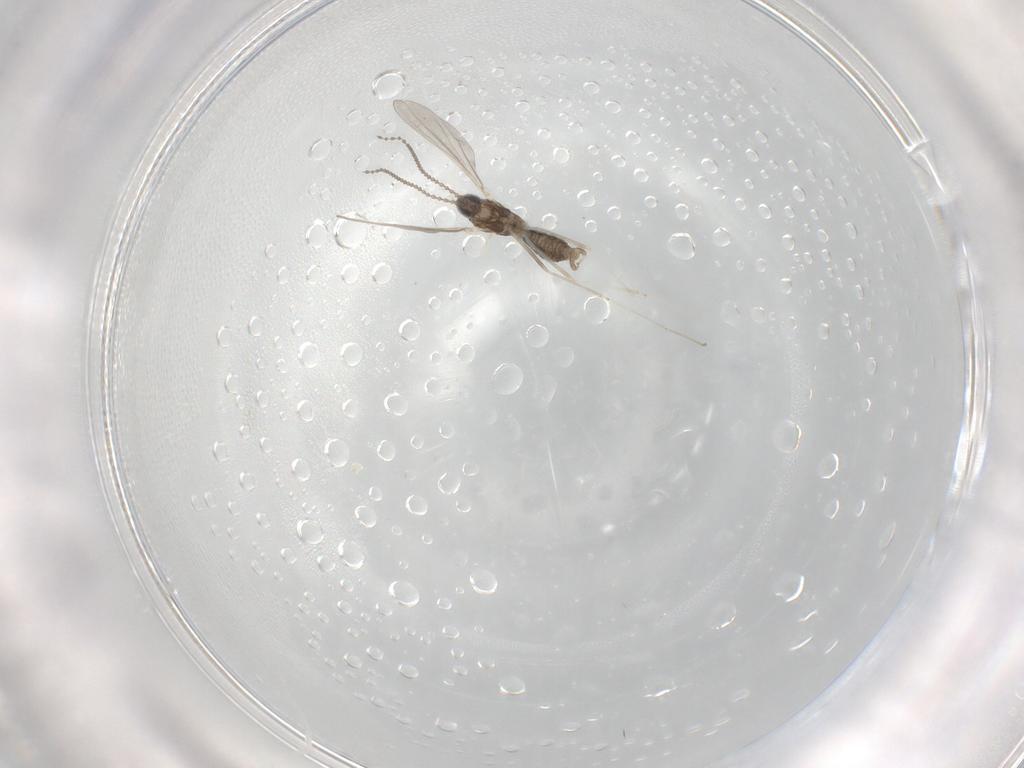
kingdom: Animalia
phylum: Arthropoda
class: Insecta
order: Diptera
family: Cecidomyiidae
